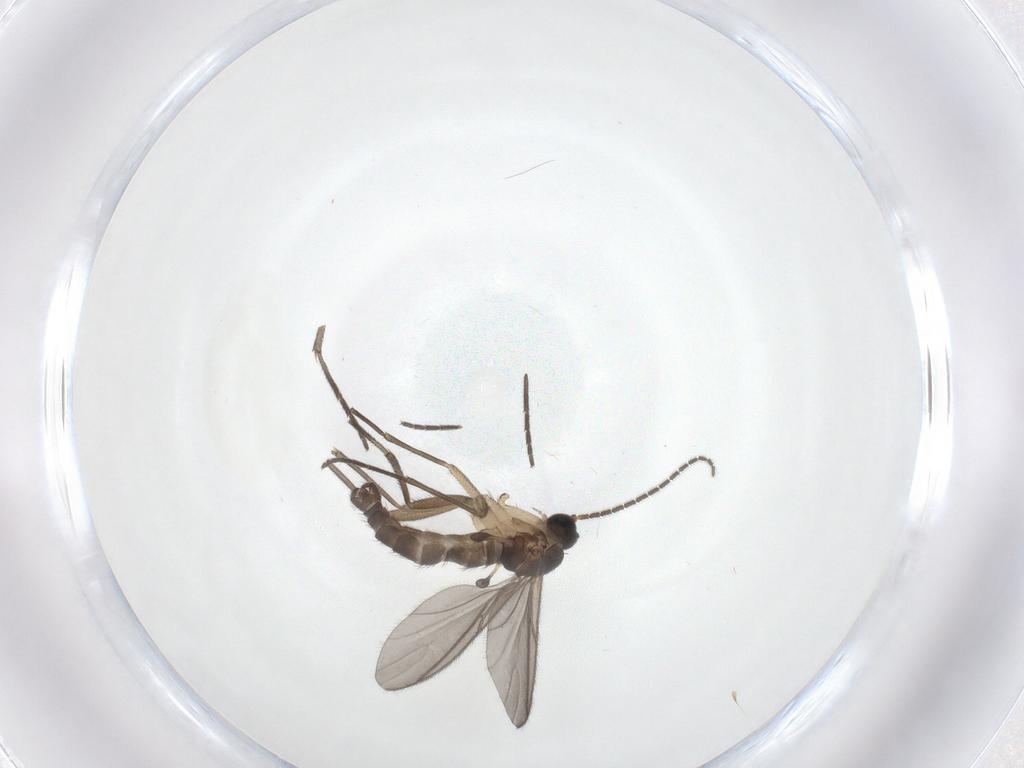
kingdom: Animalia
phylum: Arthropoda
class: Insecta
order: Diptera
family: Sciaridae
